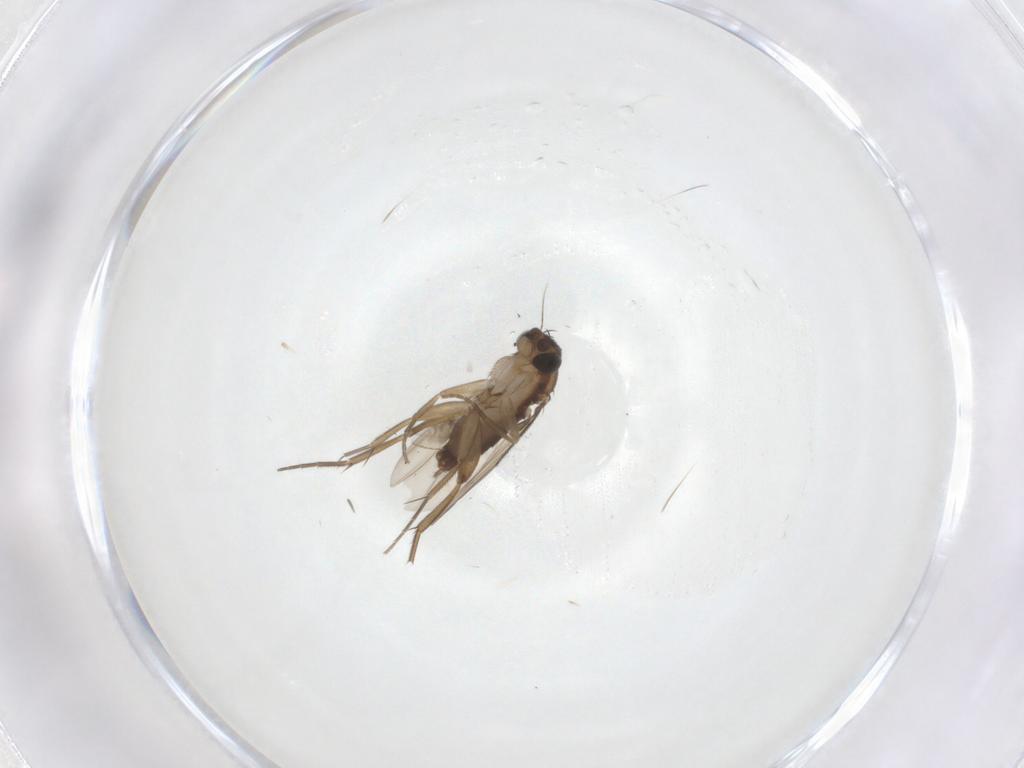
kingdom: Animalia
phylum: Arthropoda
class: Insecta
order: Diptera
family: Phoridae
